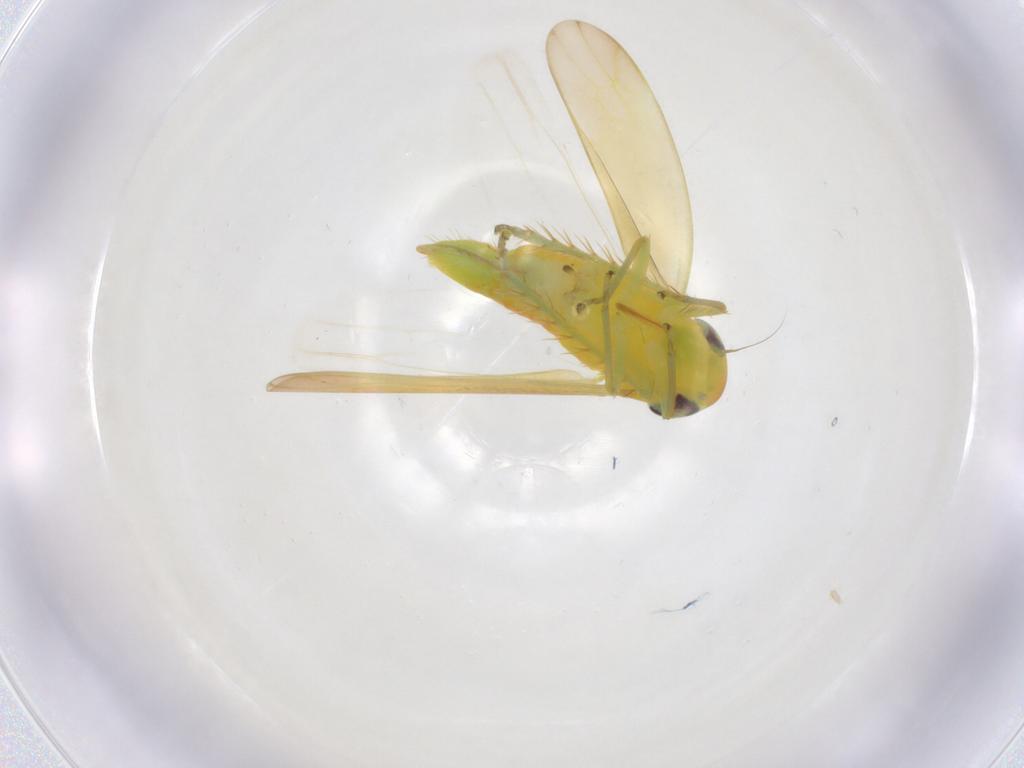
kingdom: Animalia
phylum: Arthropoda
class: Insecta
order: Hemiptera
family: Cicadellidae
